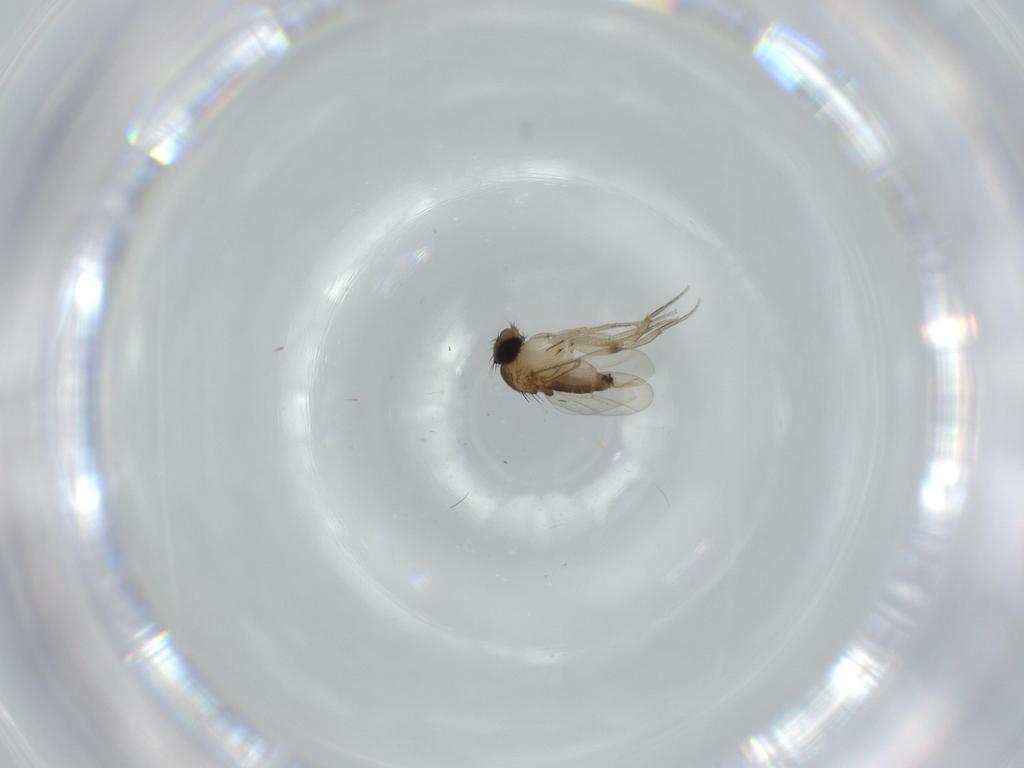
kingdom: Animalia
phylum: Arthropoda
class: Insecta
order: Diptera
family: Phoridae
